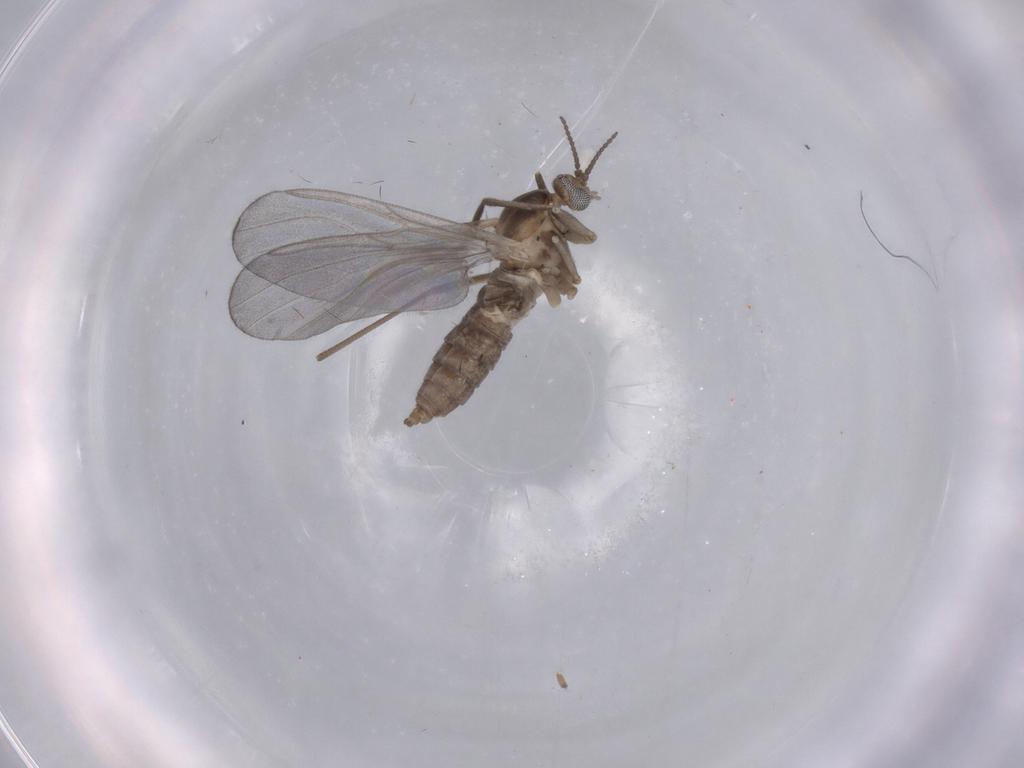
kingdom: Animalia
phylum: Arthropoda
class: Insecta
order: Diptera
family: Cecidomyiidae
